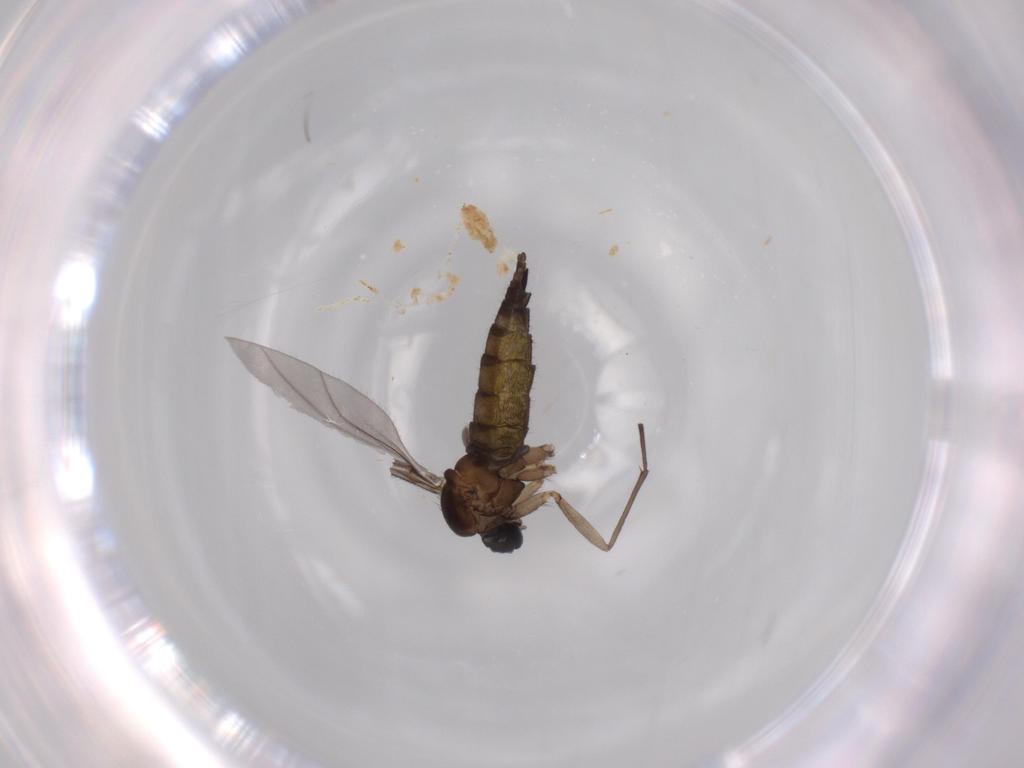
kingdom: Animalia
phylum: Arthropoda
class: Insecta
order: Diptera
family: Sciaridae
